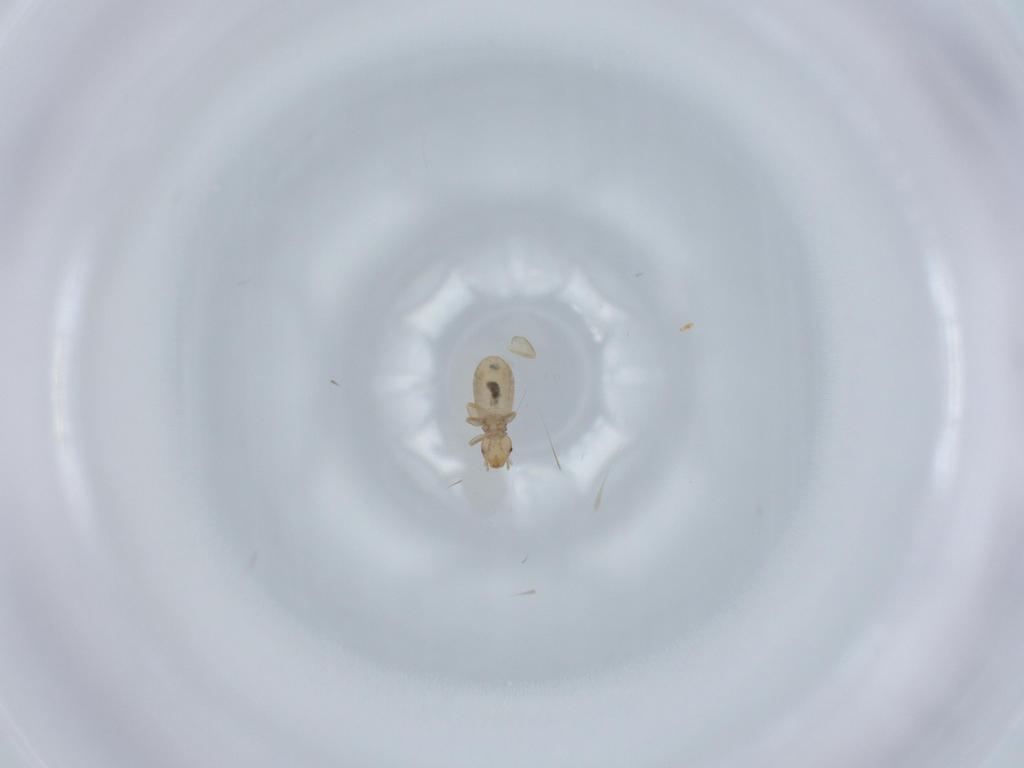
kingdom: Animalia
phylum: Arthropoda
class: Insecta
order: Psocodea
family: Liposcelididae
